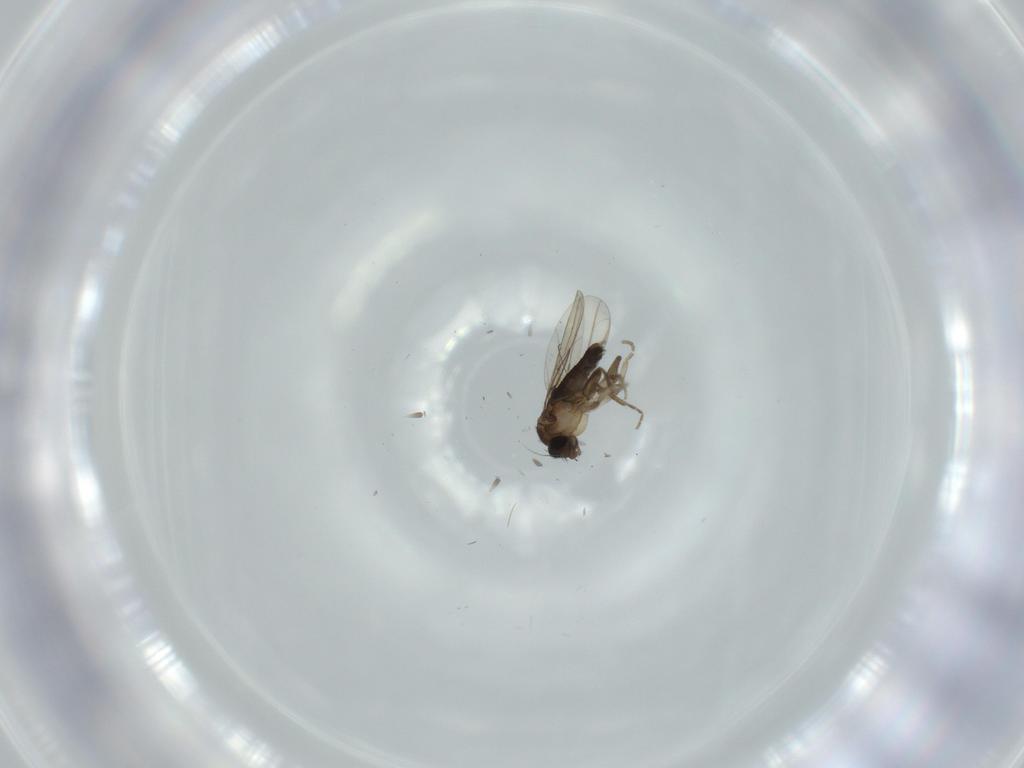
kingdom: Animalia
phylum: Arthropoda
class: Insecta
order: Diptera
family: Phoridae
